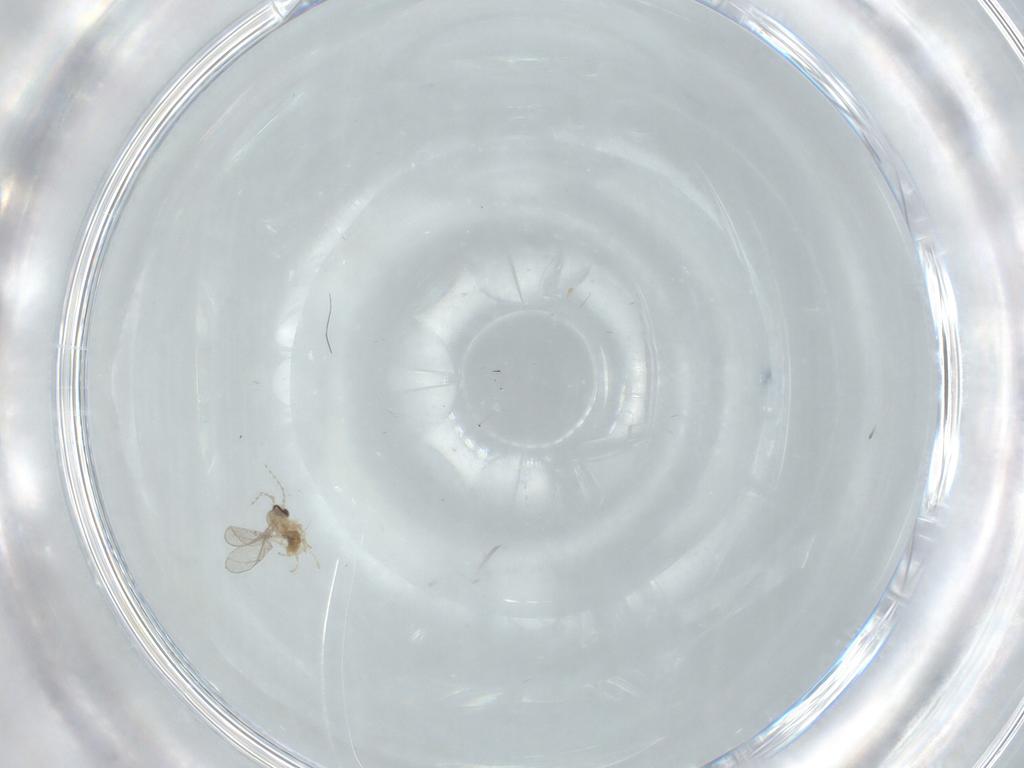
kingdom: Animalia
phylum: Arthropoda
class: Insecta
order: Diptera
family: Cecidomyiidae
